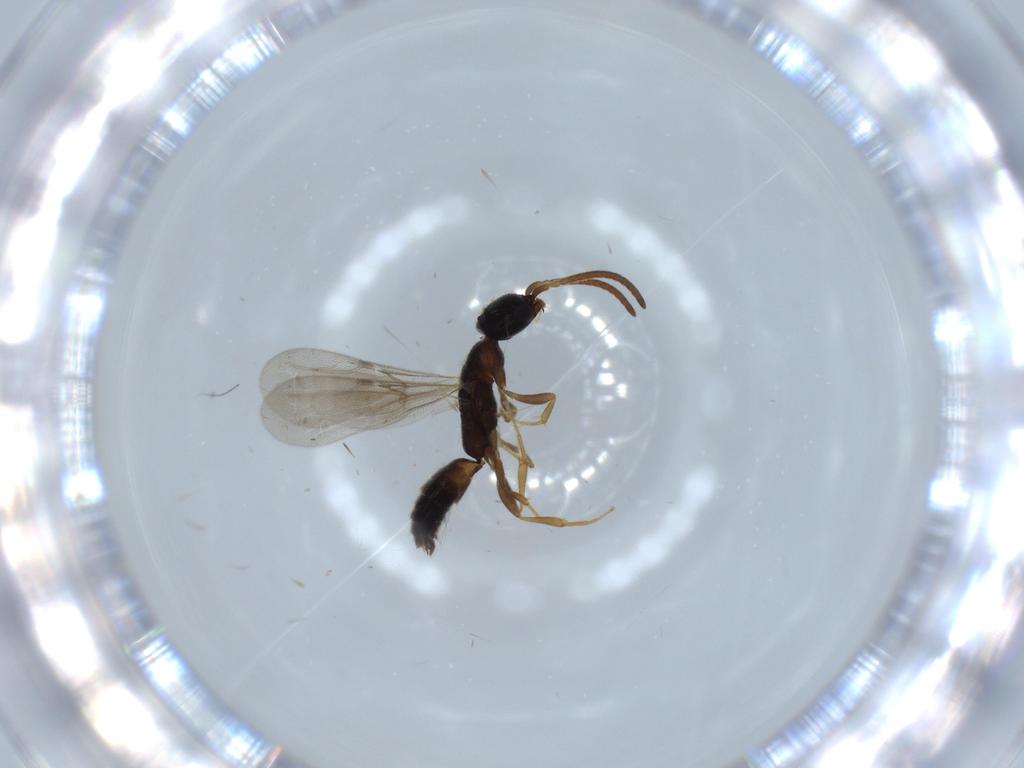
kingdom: Animalia
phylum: Arthropoda
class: Insecta
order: Hymenoptera
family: Bethylidae
